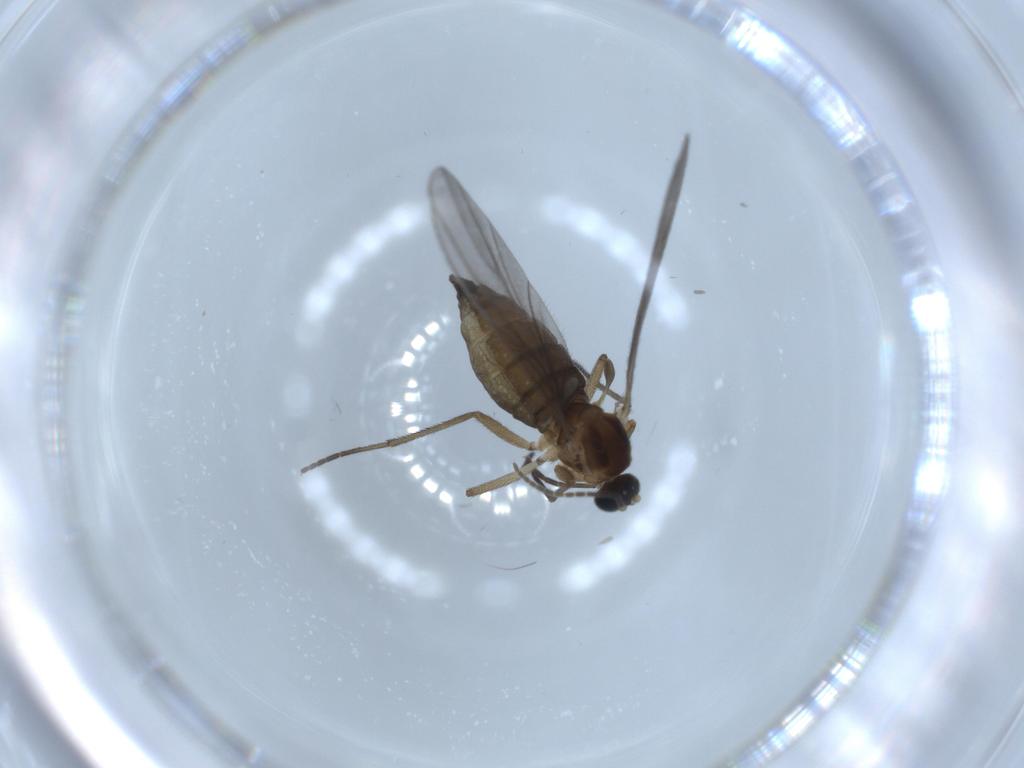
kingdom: Animalia
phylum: Arthropoda
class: Insecta
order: Diptera
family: Sciaridae
